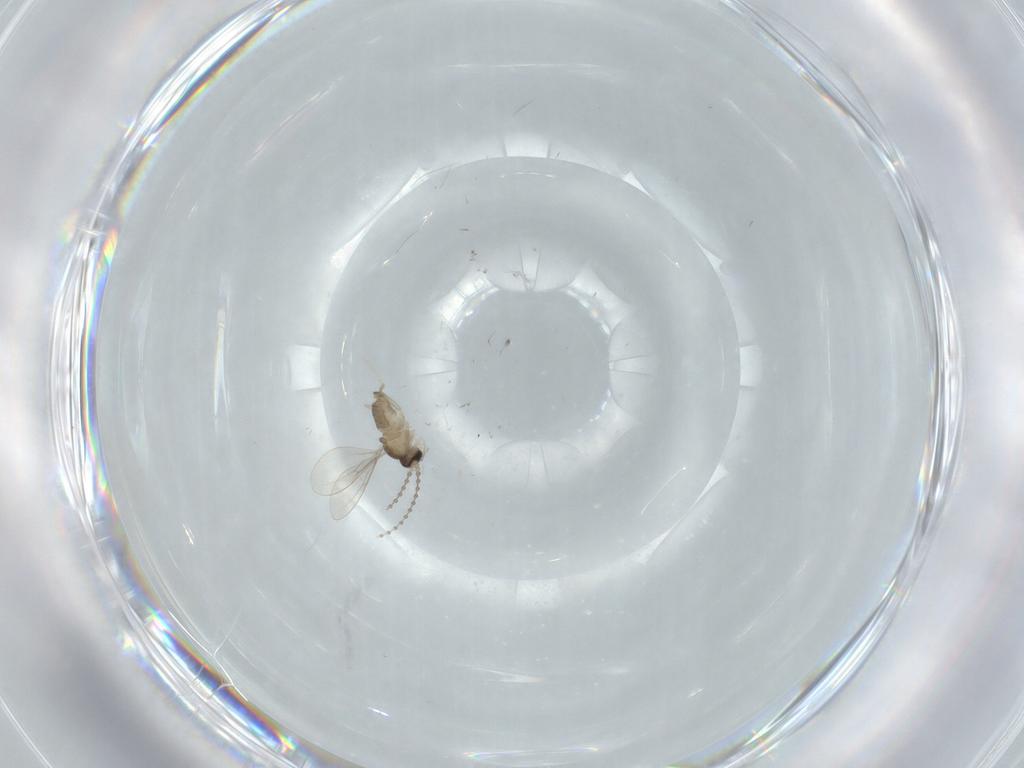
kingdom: Animalia
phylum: Arthropoda
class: Insecta
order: Diptera
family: Cecidomyiidae
